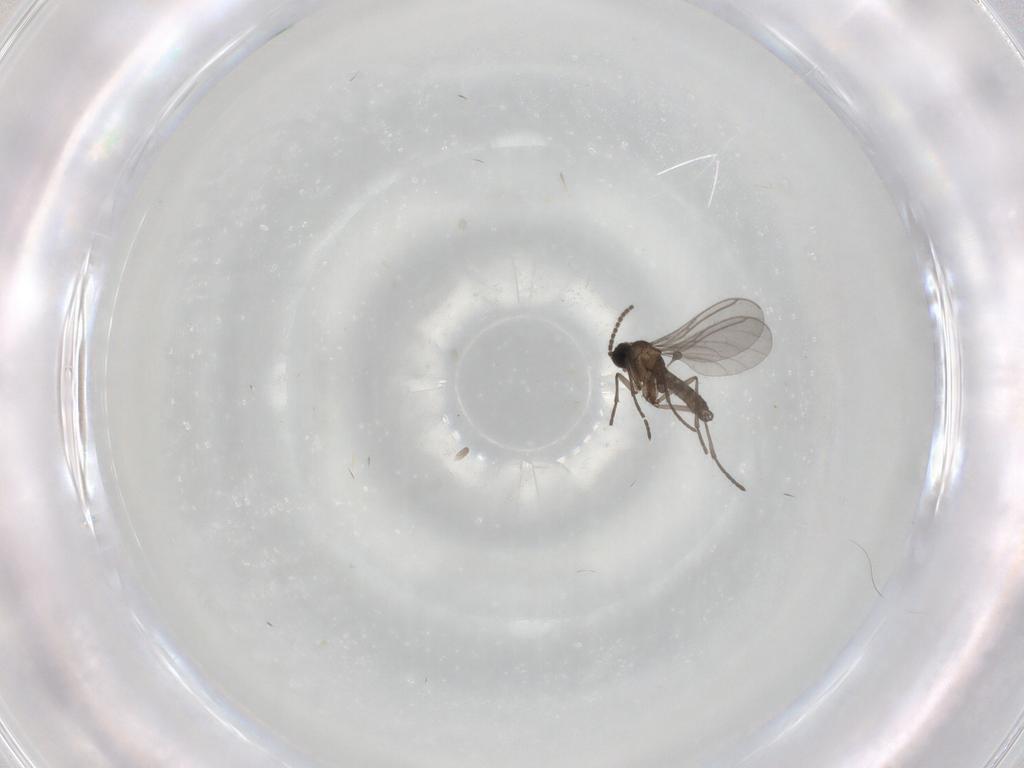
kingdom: Animalia
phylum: Arthropoda
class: Insecta
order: Diptera
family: Sciaridae
